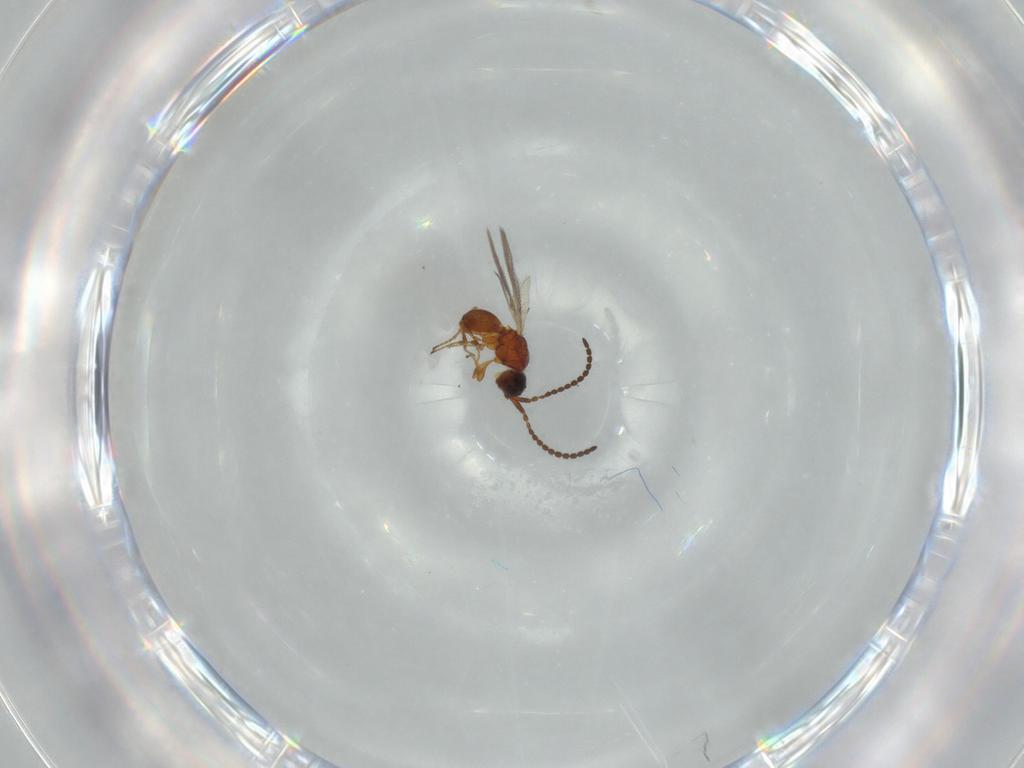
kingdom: Animalia
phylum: Arthropoda
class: Insecta
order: Hymenoptera
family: Diapriidae
